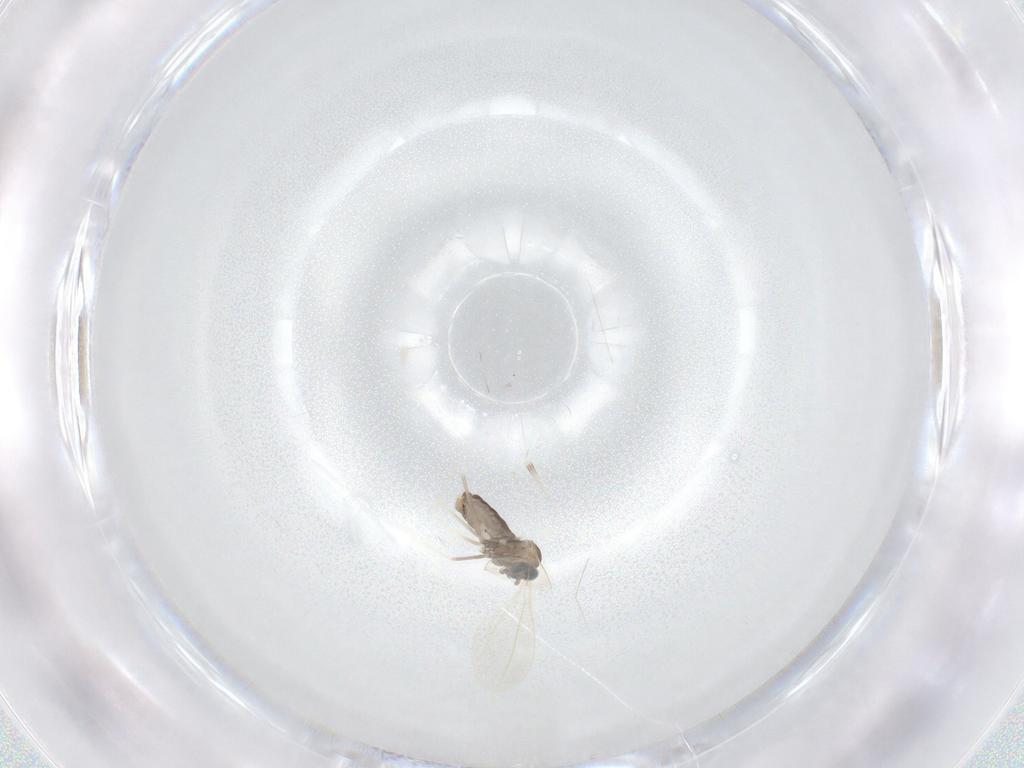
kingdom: Animalia
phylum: Arthropoda
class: Insecta
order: Diptera
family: Cecidomyiidae
